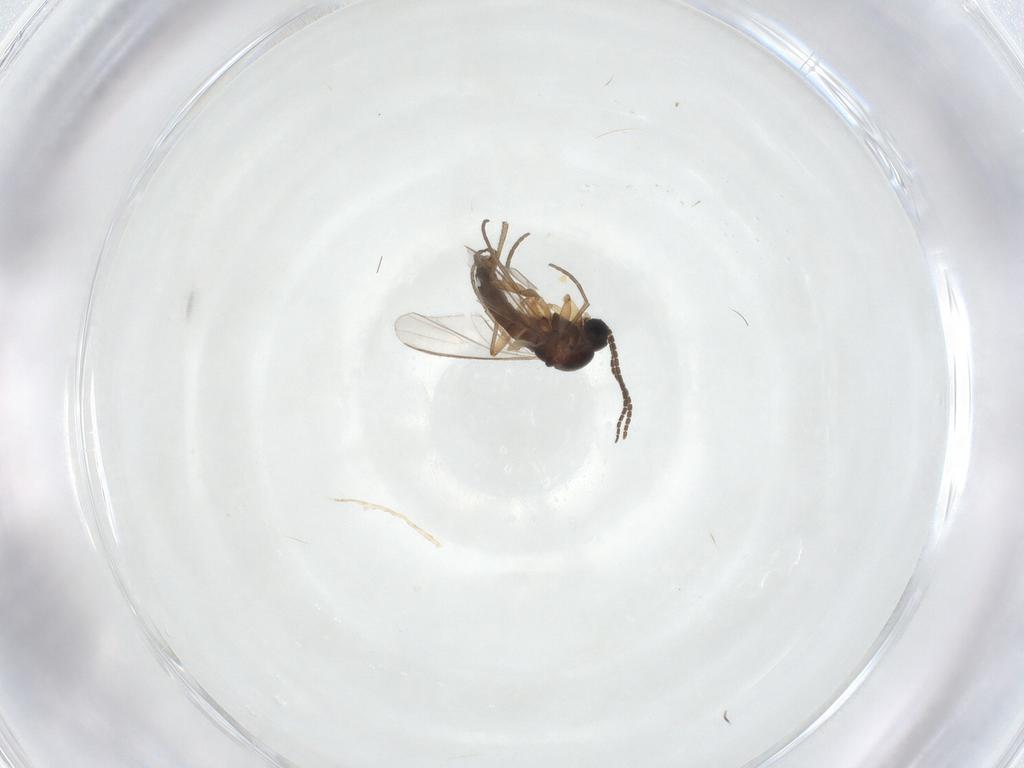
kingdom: Animalia
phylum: Arthropoda
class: Insecta
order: Diptera
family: Sciaridae
